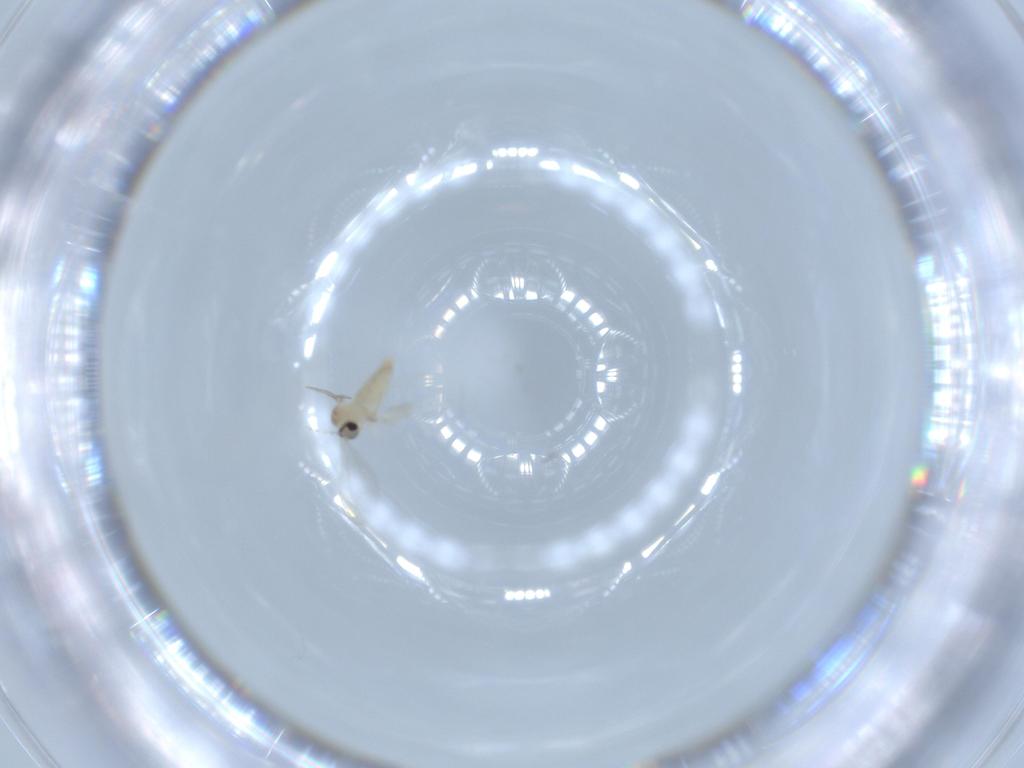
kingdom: Animalia
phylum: Arthropoda
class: Insecta
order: Diptera
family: Cecidomyiidae
